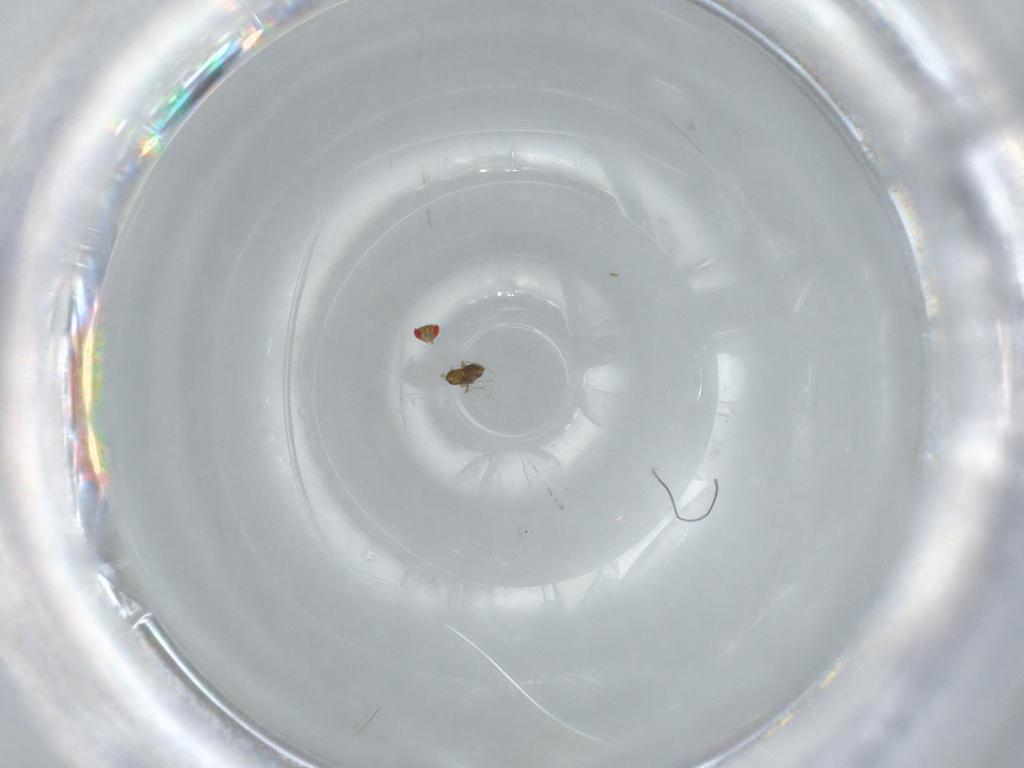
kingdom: Animalia
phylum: Arthropoda
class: Insecta
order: Hymenoptera
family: Trichogrammatidae
